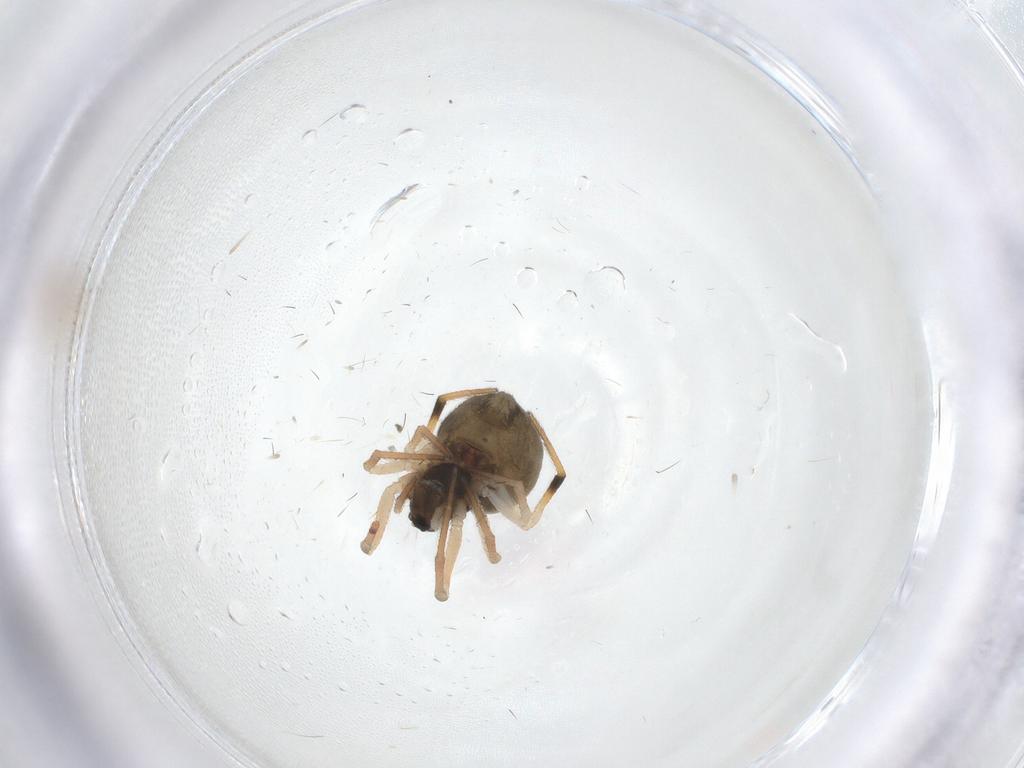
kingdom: Animalia
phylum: Arthropoda
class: Arachnida
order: Araneae
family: Theridiidae
